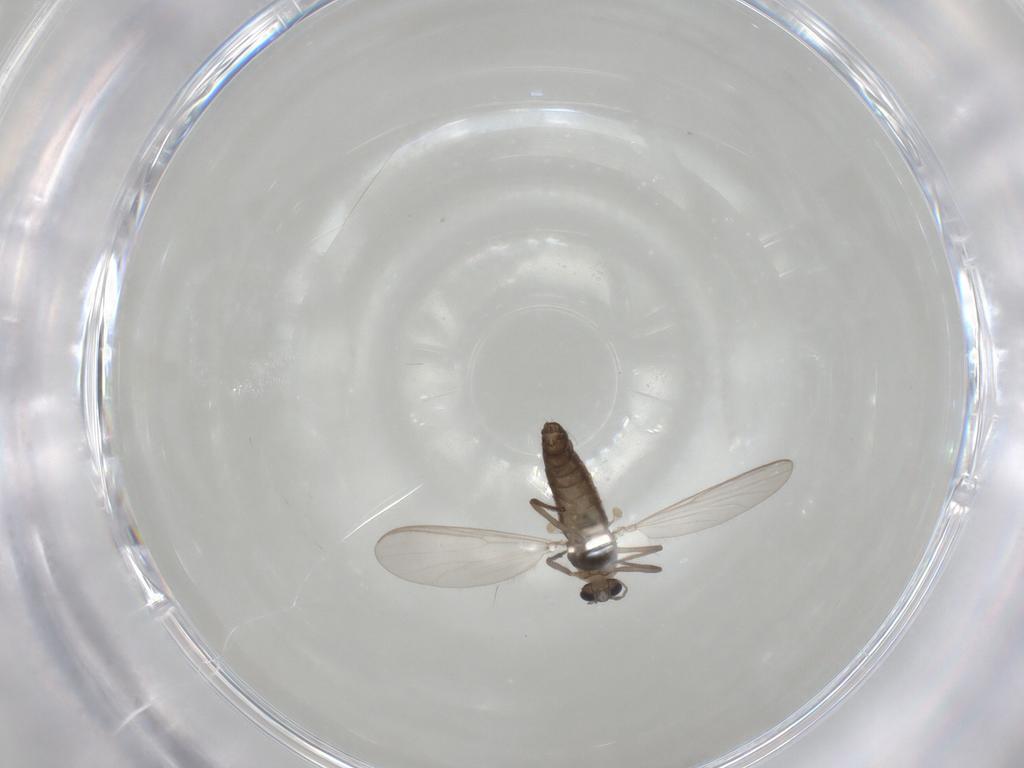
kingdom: Animalia
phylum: Arthropoda
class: Insecta
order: Diptera
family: Chironomidae
